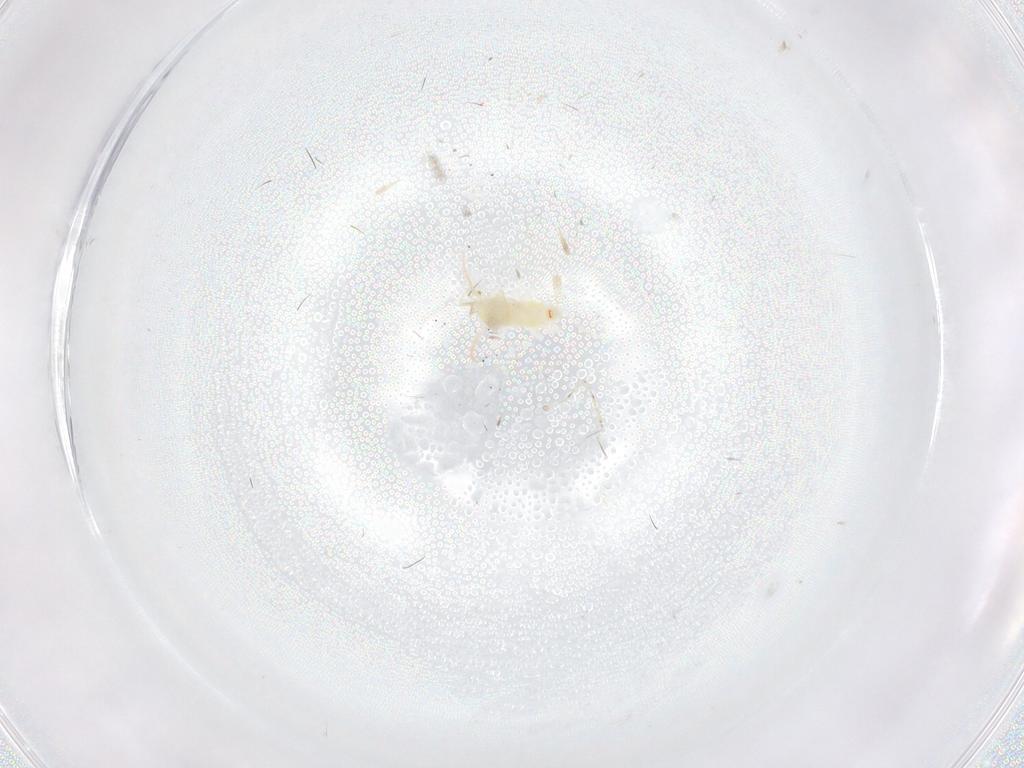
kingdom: Animalia
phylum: Arthropoda
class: Insecta
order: Hemiptera
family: Aleyrodidae
